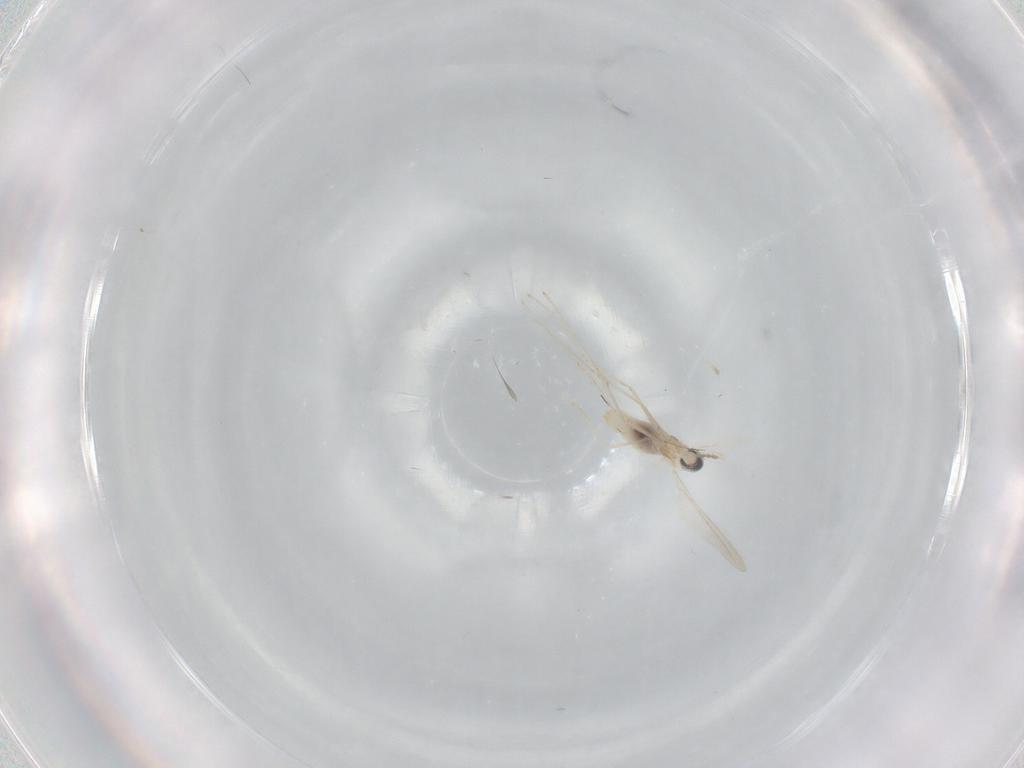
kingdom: Animalia
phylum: Arthropoda
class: Insecta
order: Diptera
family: Cecidomyiidae
